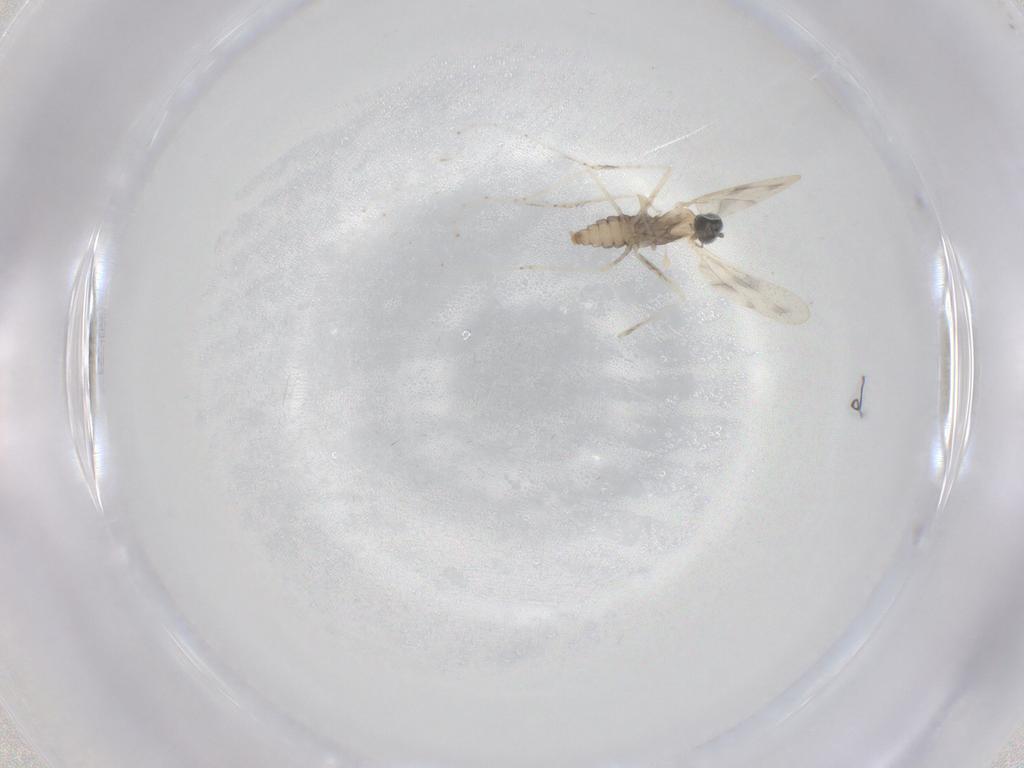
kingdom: Animalia
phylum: Arthropoda
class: Insecta
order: Diptera
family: Cecidomyiidae
